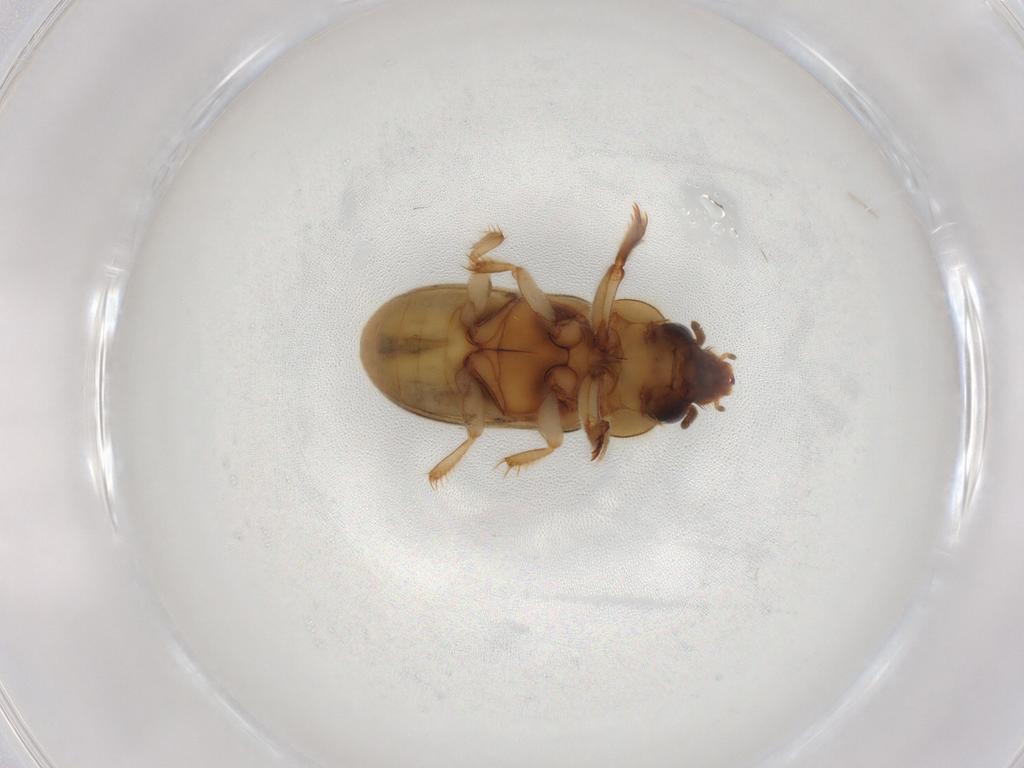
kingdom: Animalia
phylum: Arthropoda
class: Insecta
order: Coleoptera
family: Heteroceridae
